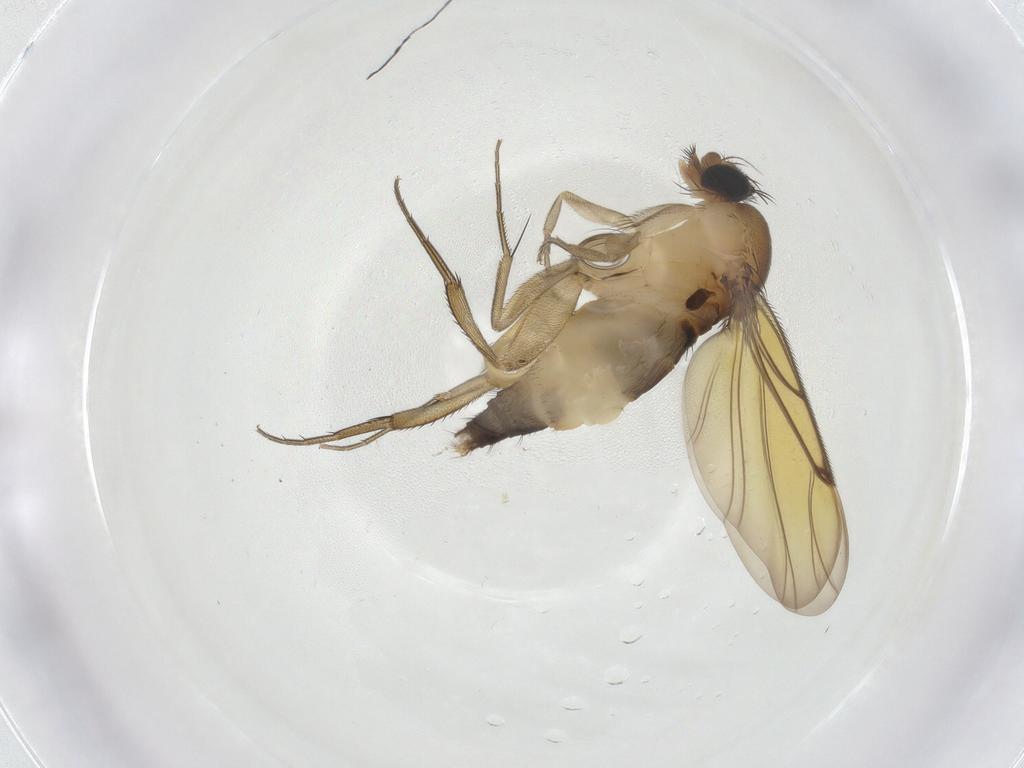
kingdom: Animalia
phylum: Arthropoda
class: Insecta
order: Diptera
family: Phoridae
